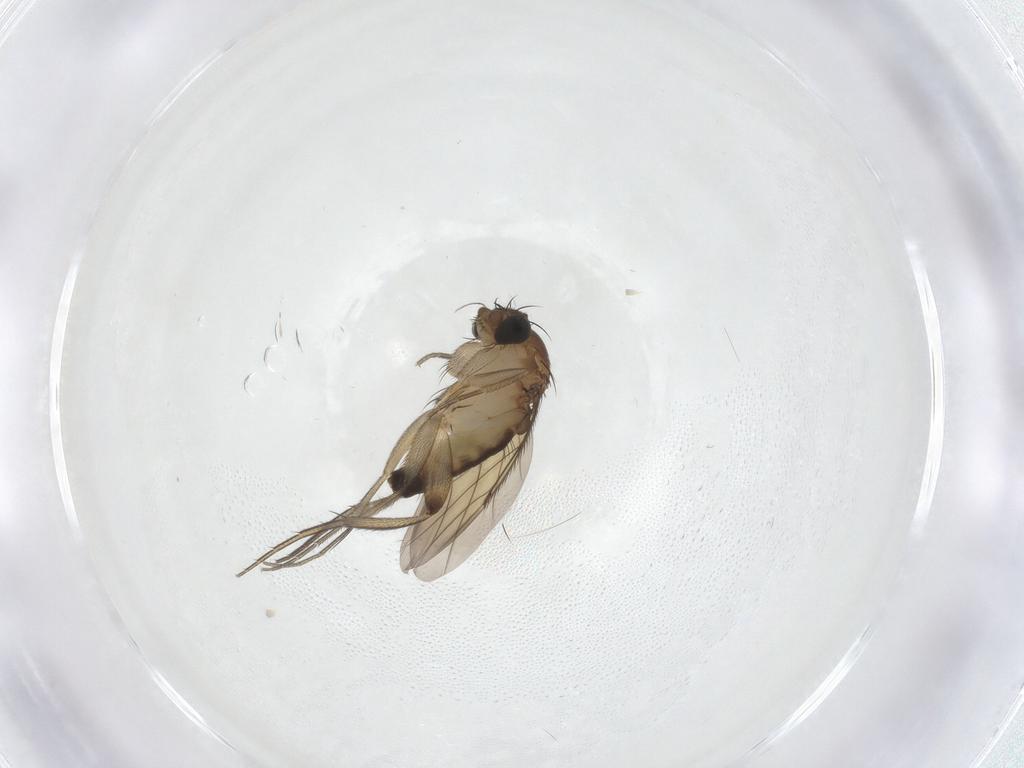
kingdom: Animalia
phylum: Arthropoda
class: Insecta
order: Diptera
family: Phoridae
